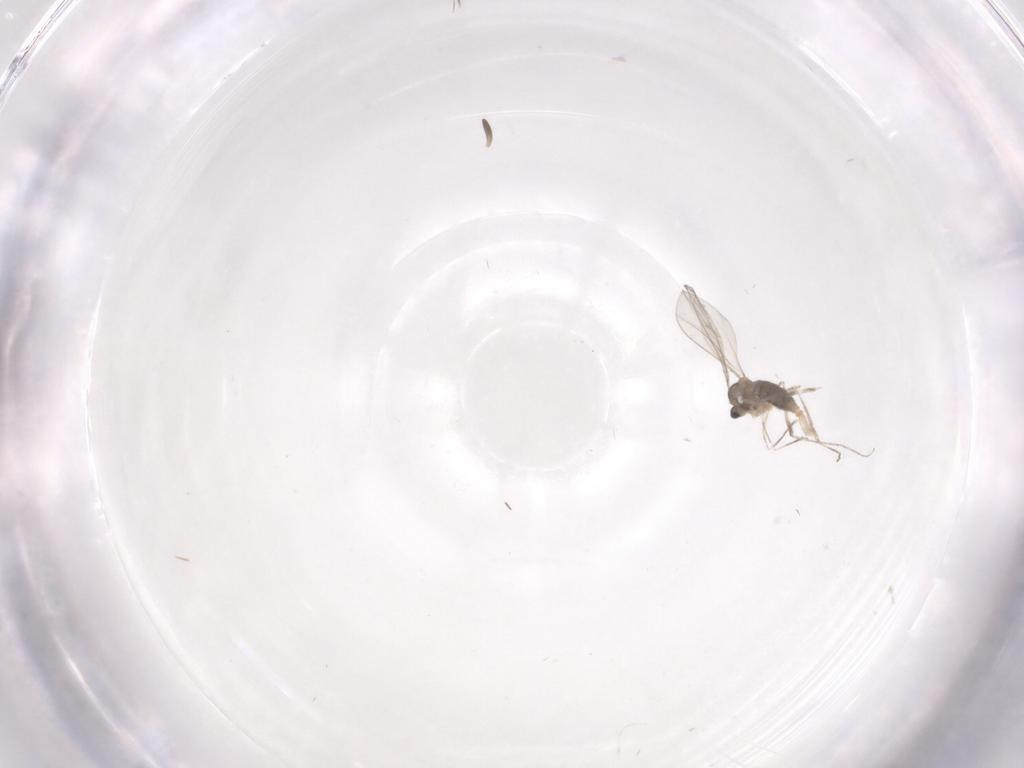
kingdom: Animalia
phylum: Arthropoda
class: Insecta
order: Diptera
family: Cecidomyiidae
